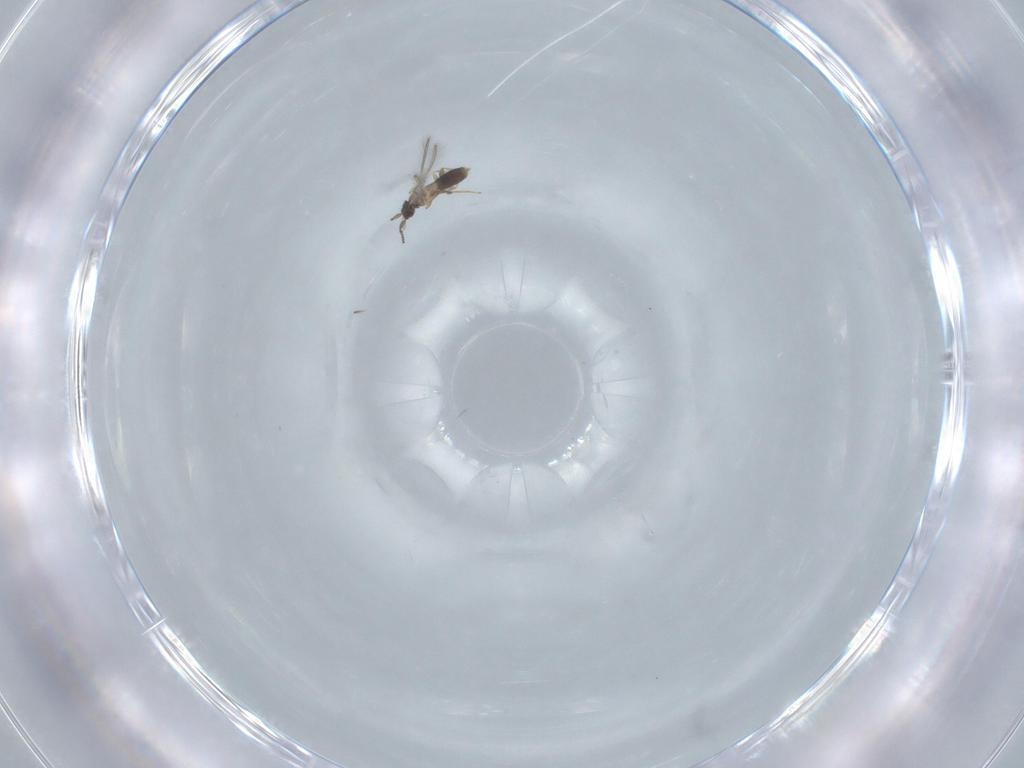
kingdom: Animalia
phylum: Arthropoda
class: Insecta
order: Hymenoptera
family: Mymaridae
